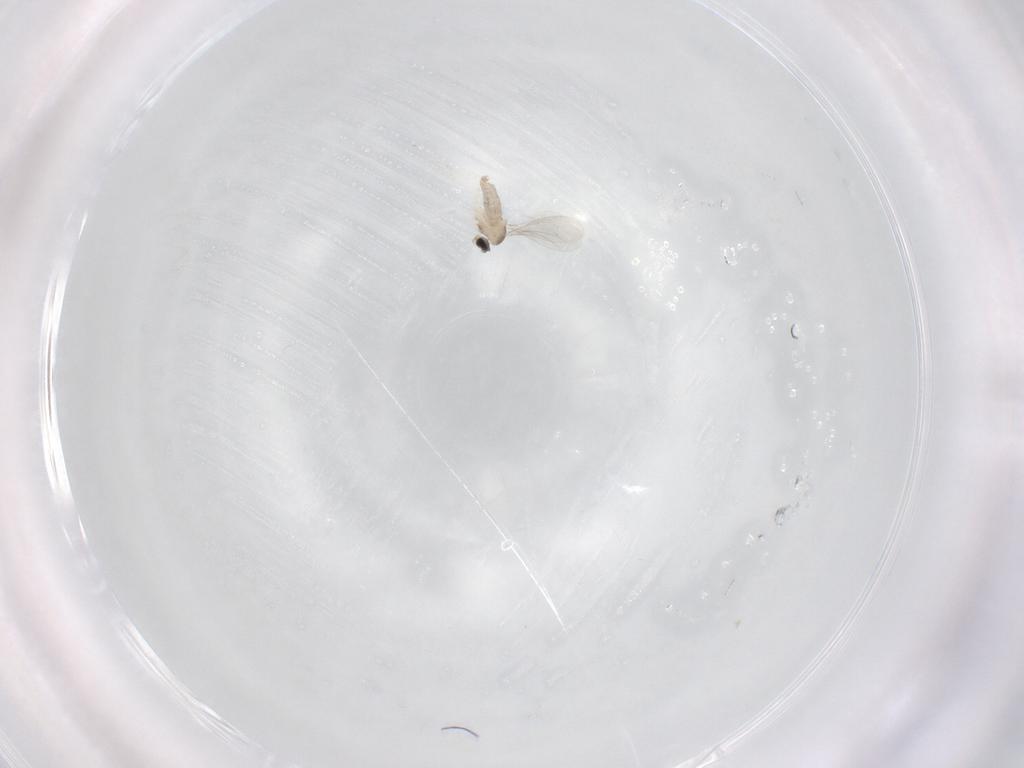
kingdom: Animalia
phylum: Arthropoda
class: Insecta
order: Diptera
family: Cecidomyiidae
